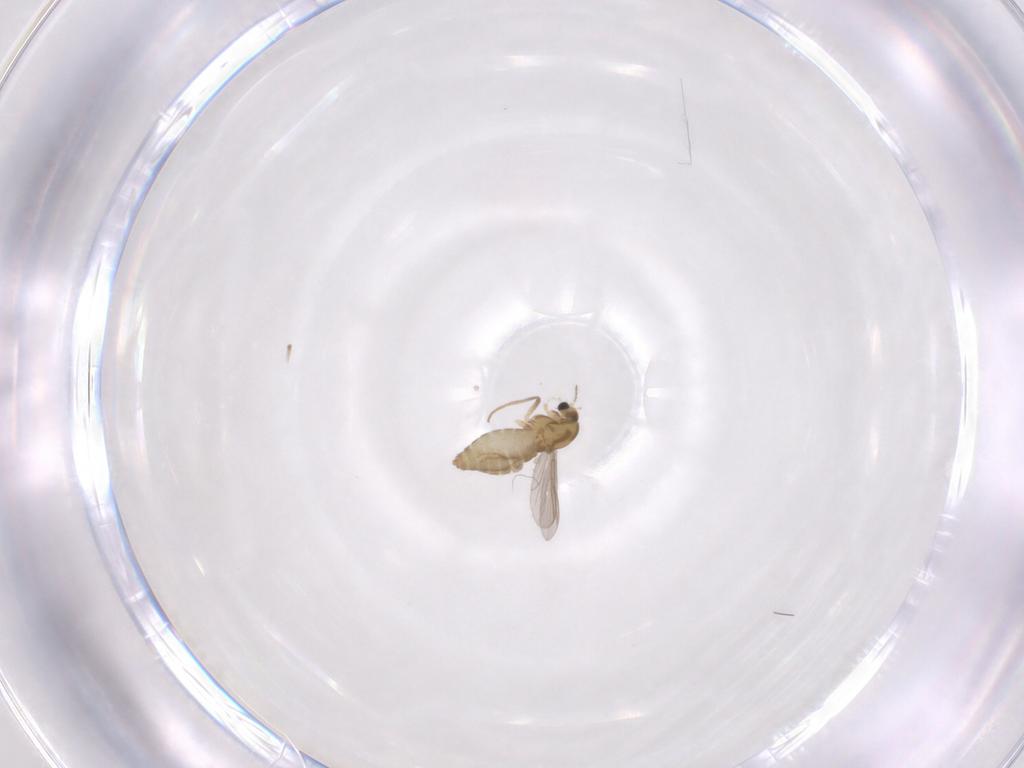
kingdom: Animalia
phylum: Arthropoda
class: Insecta
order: Diptera
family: Chironomidae
